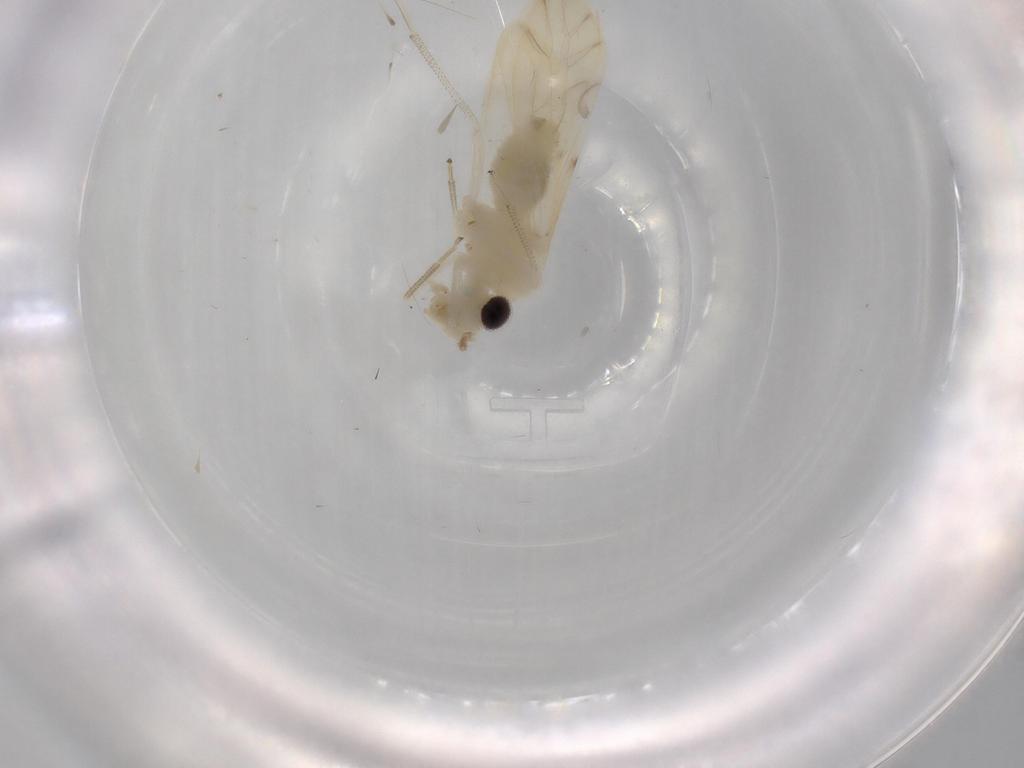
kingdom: Animalia
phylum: Arthropoda
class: Insecta
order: Psocodea
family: Caeciliusidae
